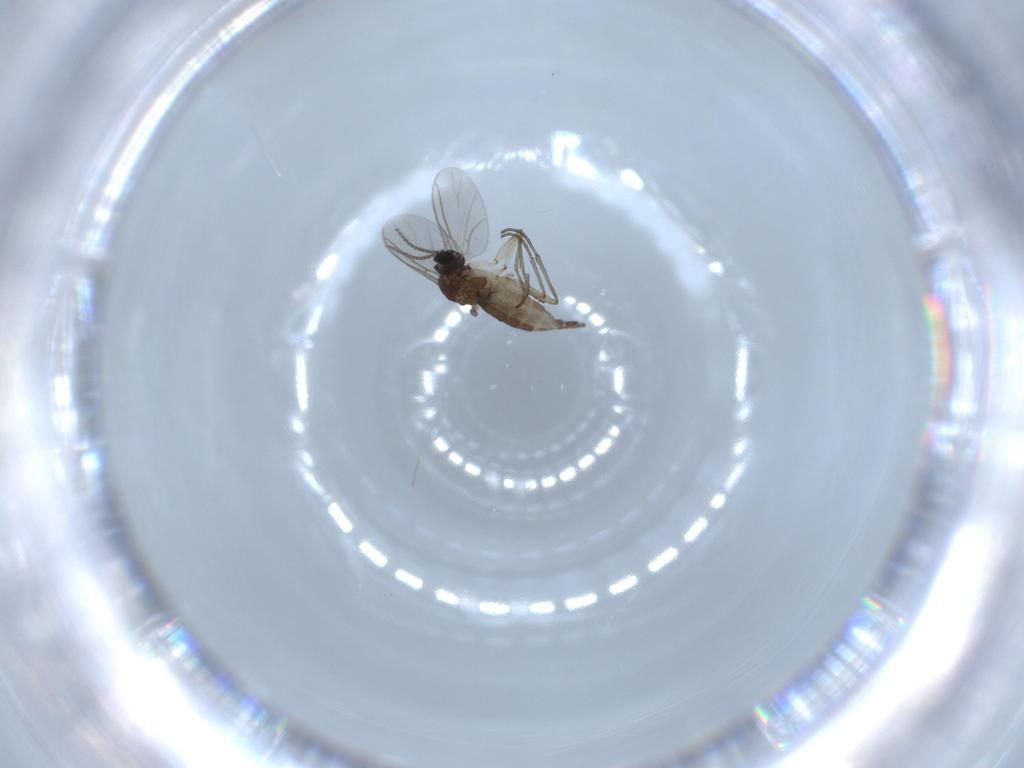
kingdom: Animalia
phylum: Arthropoda
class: Insecta
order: Diptera
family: Sciaridae
